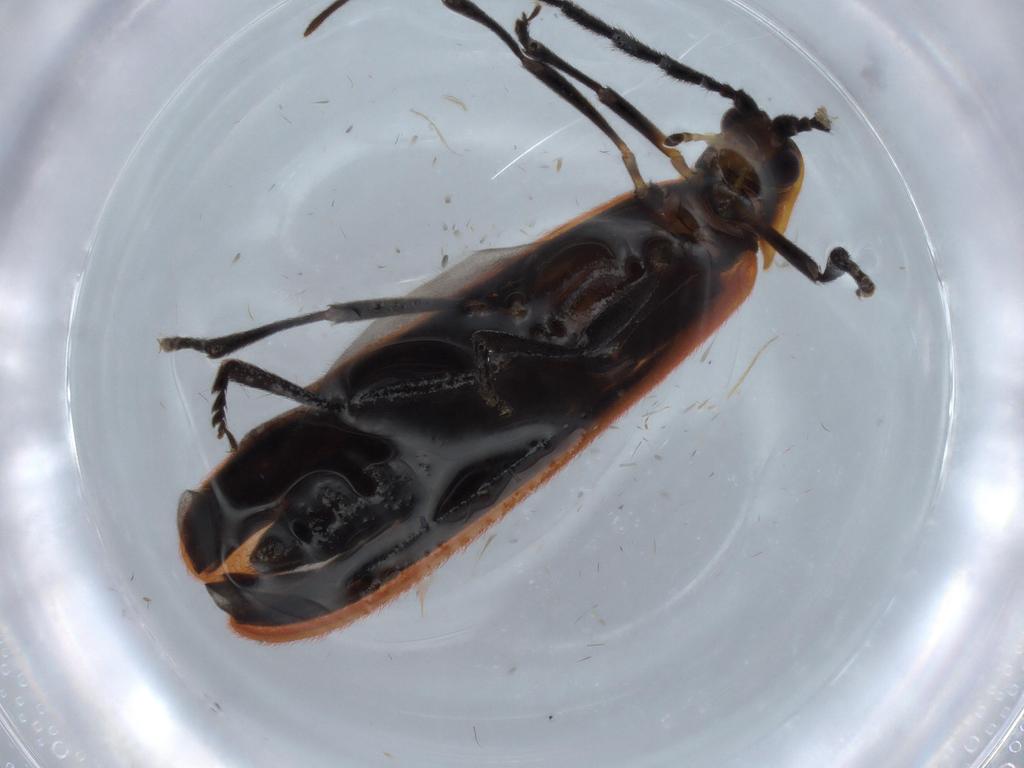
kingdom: Animalia
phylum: Arthropoda
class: Insecta
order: Coleoptera
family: Lycidae
